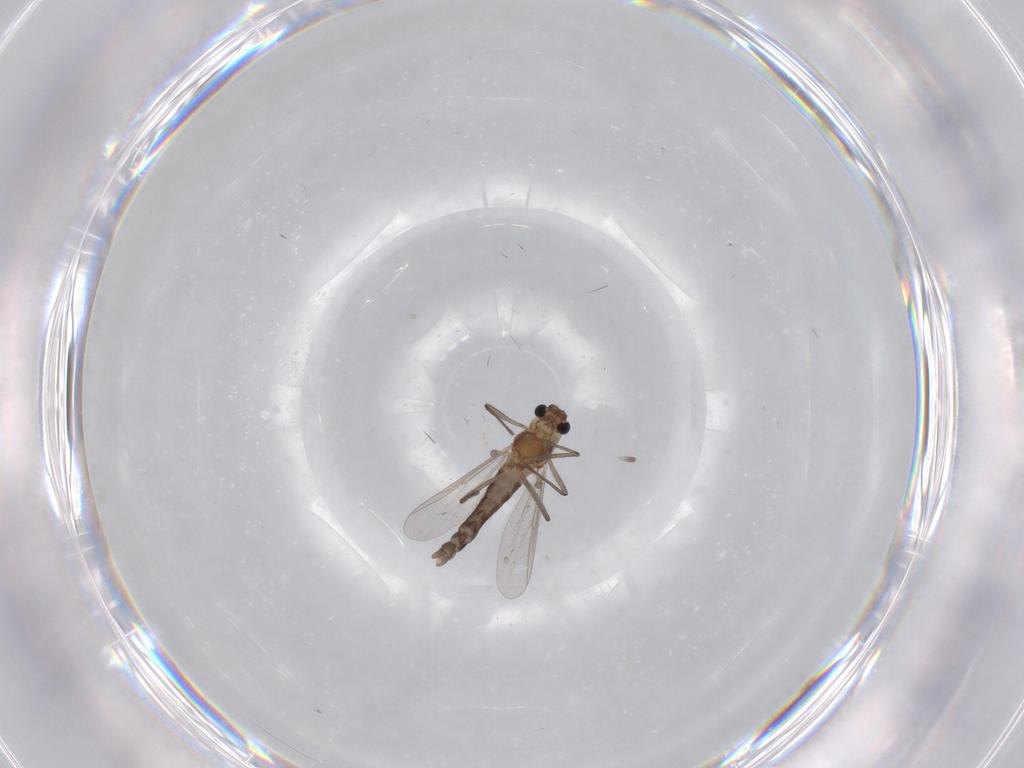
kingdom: Animalia
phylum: Arthropoda
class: Insecta
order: Diptera
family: Chironomidae
